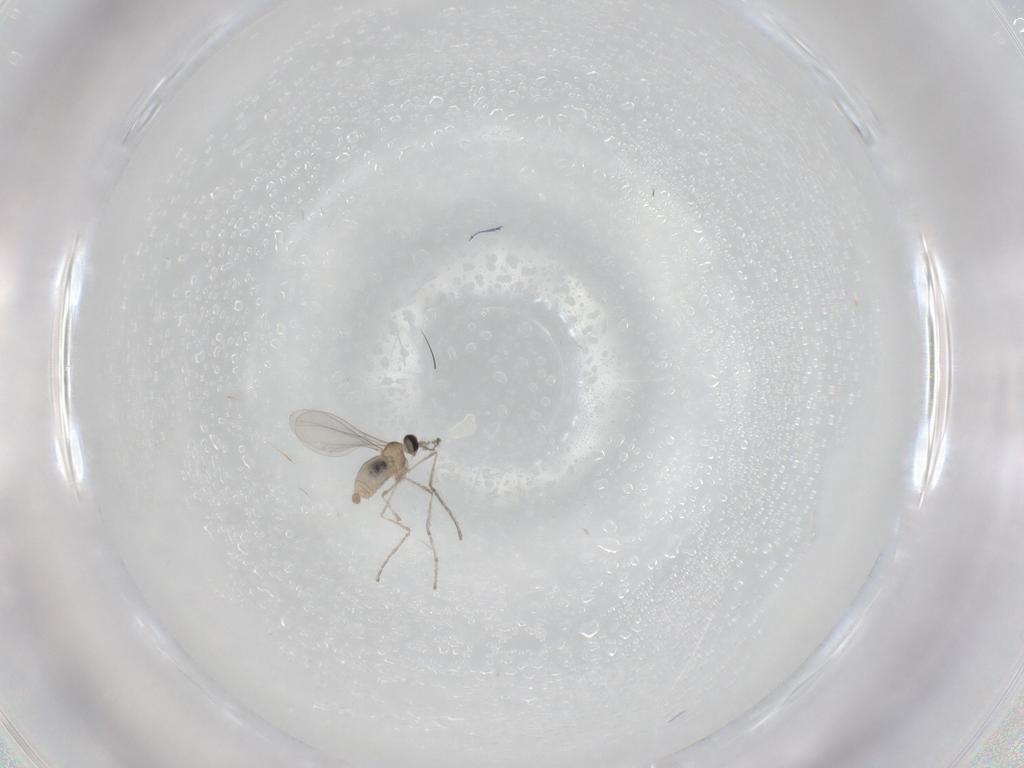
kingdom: Animalia
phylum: Arthropoda
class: Insecta
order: Diptera
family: Cecidomyiidae
